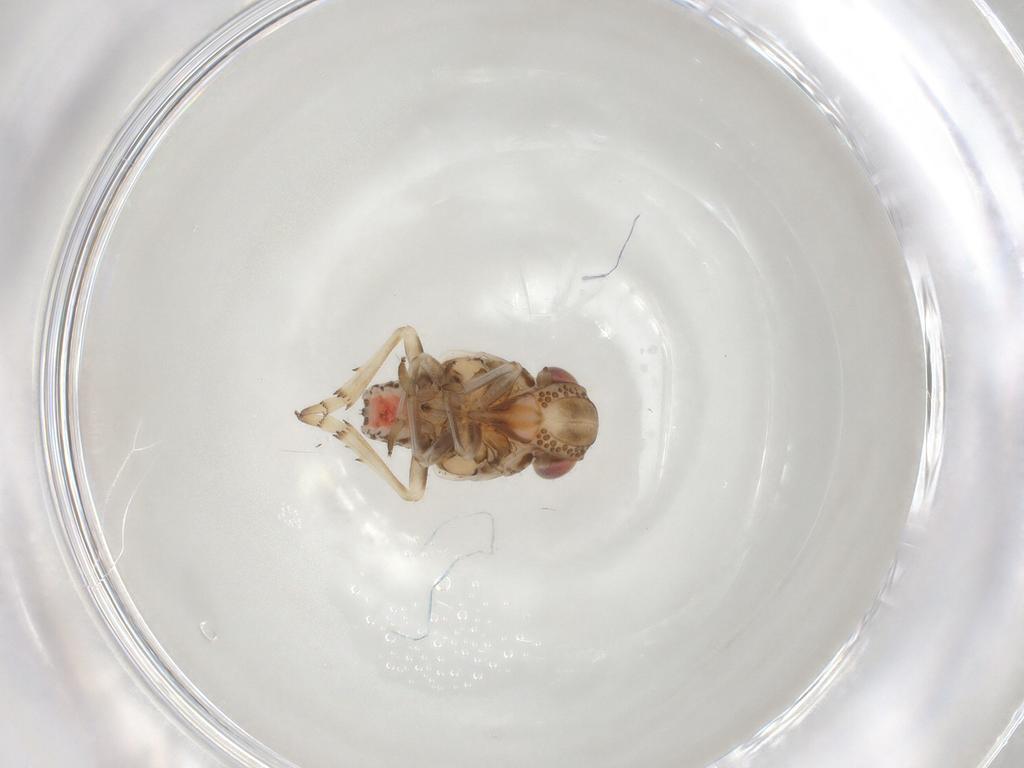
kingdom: Animalia
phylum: Arthropoda
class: Insecta
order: Hemiptera
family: Tropiduchidae
